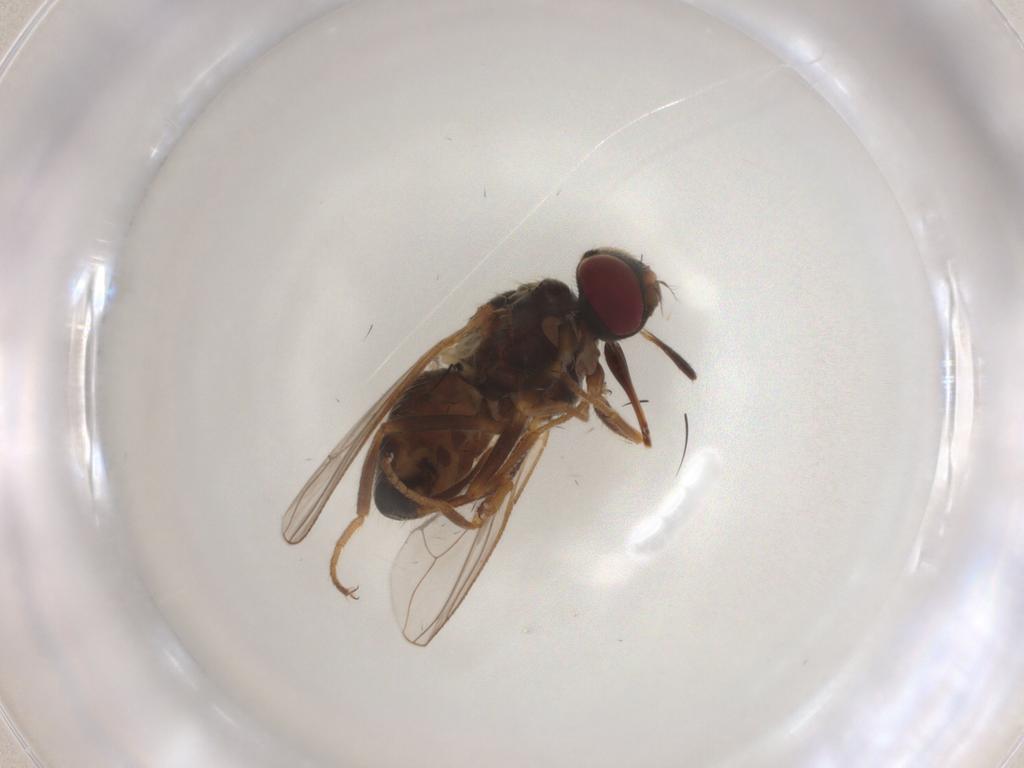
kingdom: Animalia
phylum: Arthropoda
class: Insecta
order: Diptera
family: Muscidae
